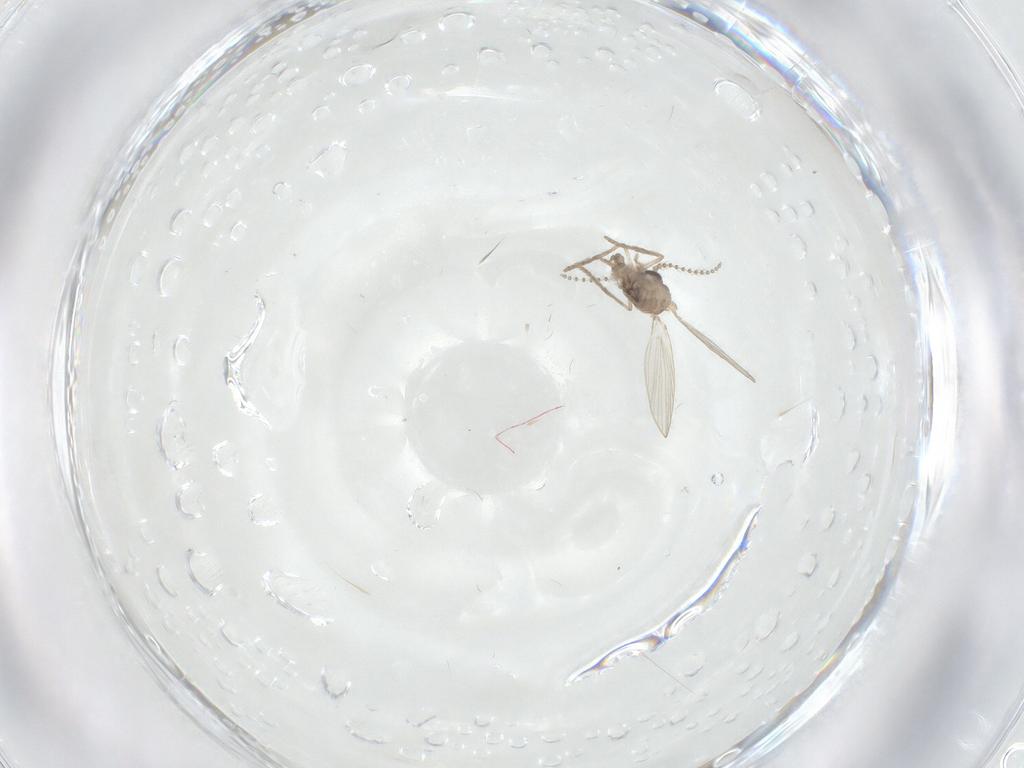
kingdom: Animalia
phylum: Arthropoda
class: Insecta
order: Diptera
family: Psychodidae
